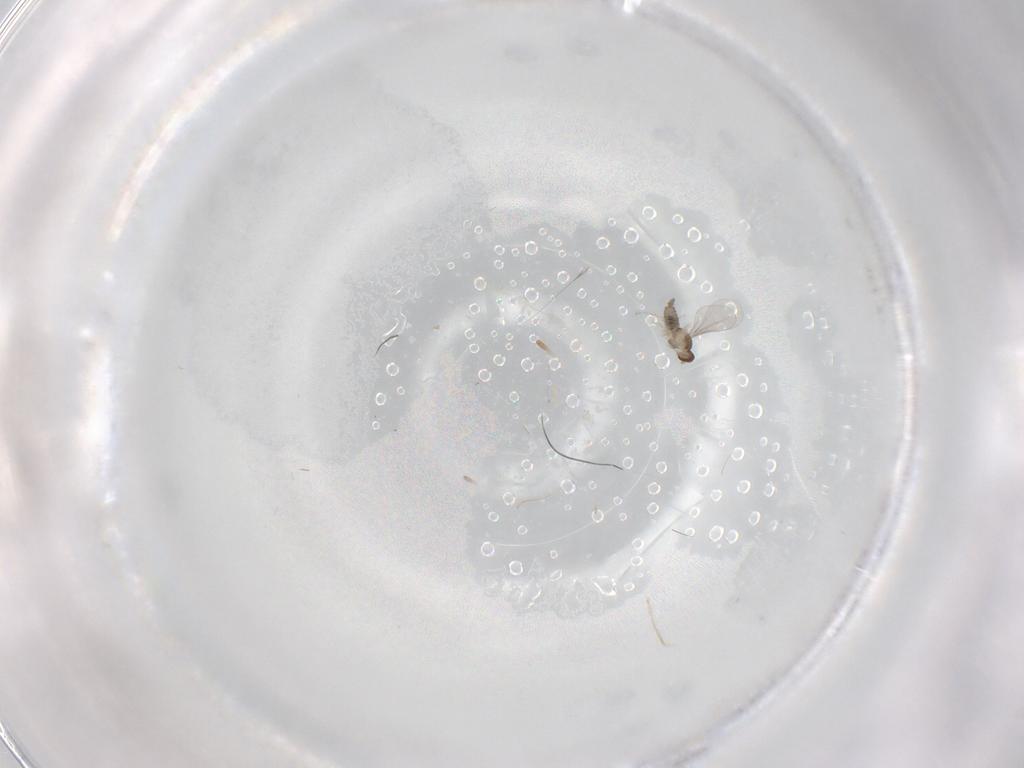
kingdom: Animalia
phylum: Arthropoda
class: Insecta
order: Diptera
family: Cecidomyiidae
